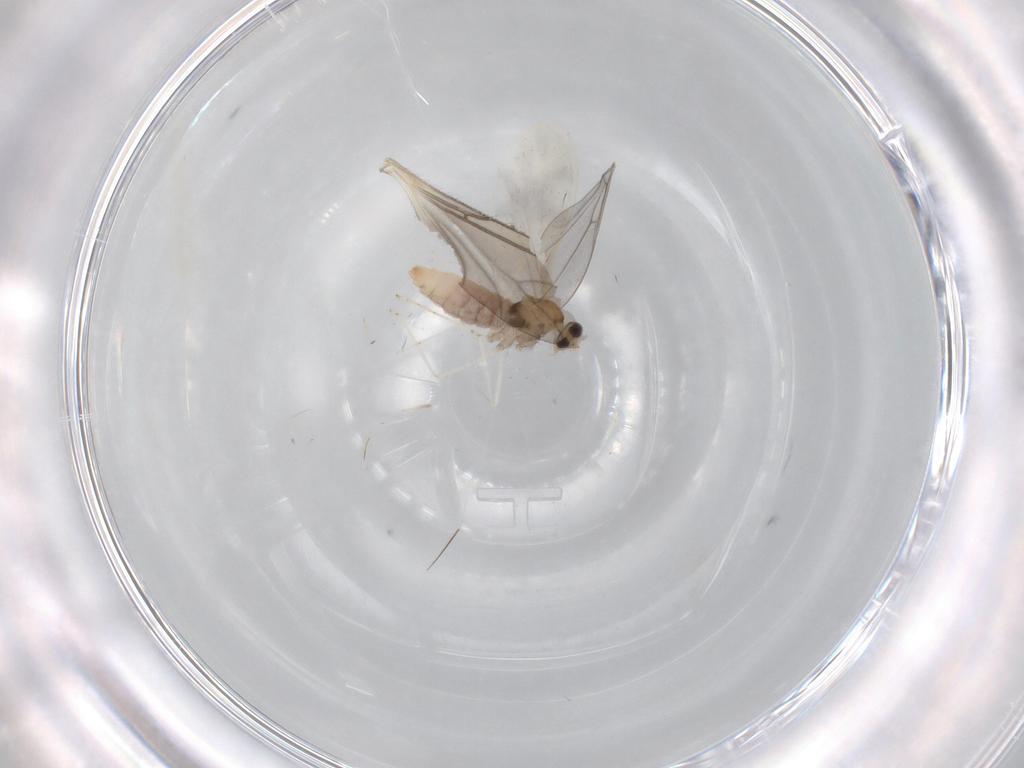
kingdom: Animalia
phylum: Arthropoda
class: Insecta
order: Diptera
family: Cecidomyiidae
